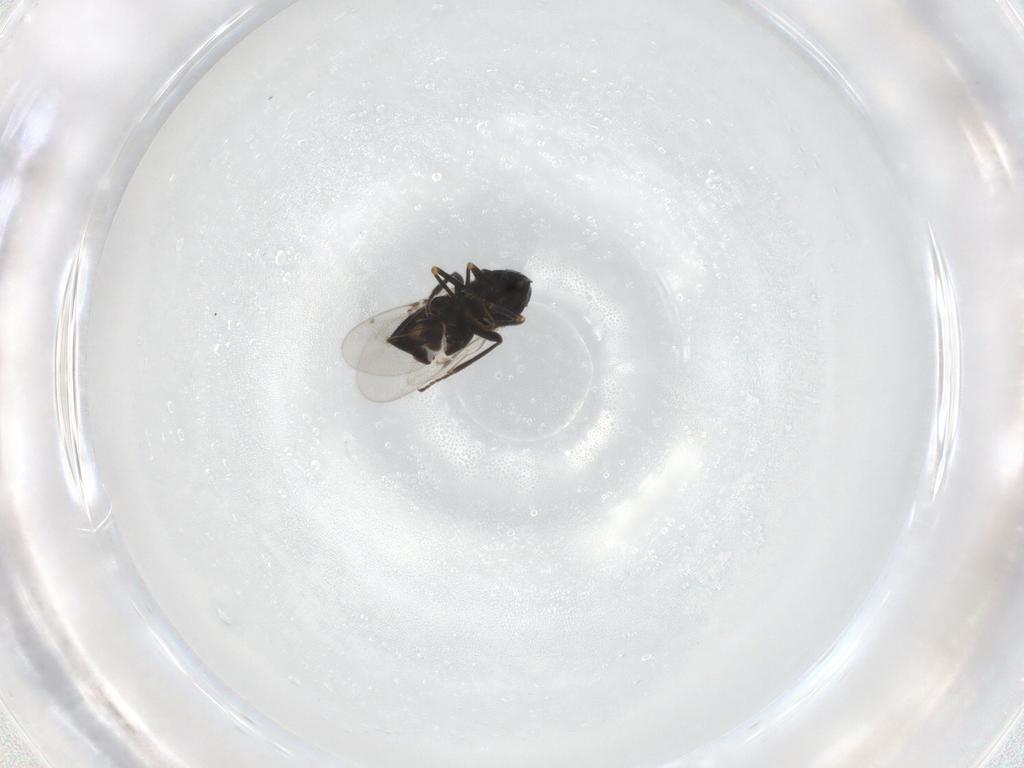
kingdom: Animalia
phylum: Arthropoda
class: Insecta
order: Hymenoptera
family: Encyrtidae
